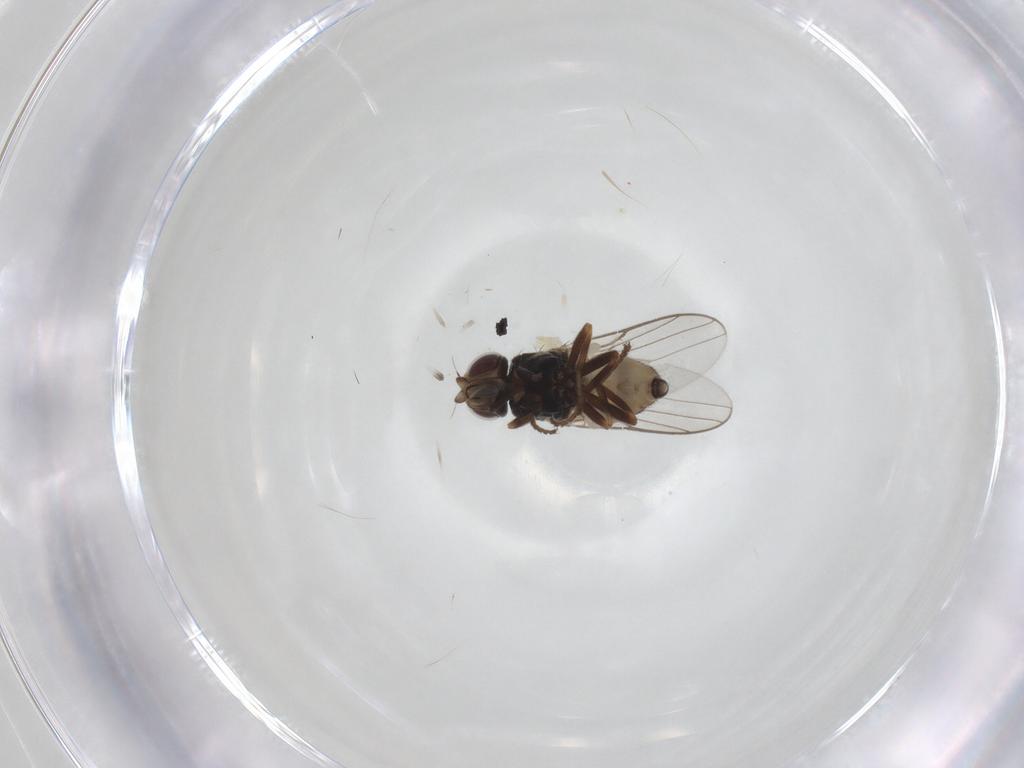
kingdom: Animalia
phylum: Arthropoda
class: Insecta
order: Diptera
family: Chloropidae
